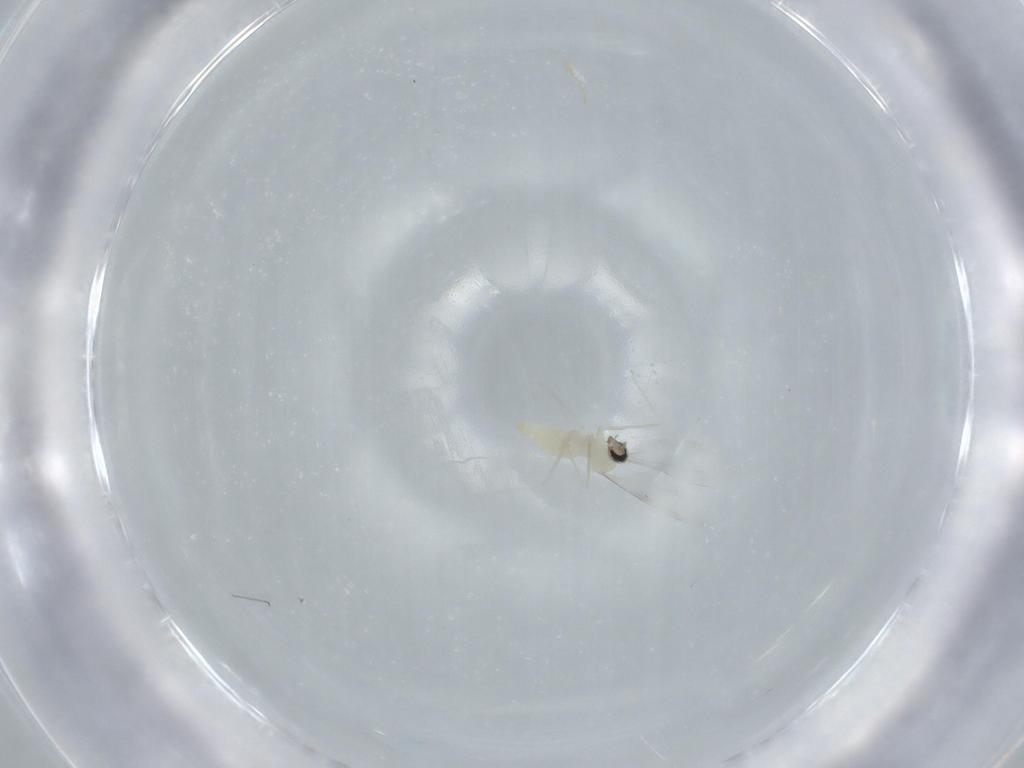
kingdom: Animalia
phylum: Arthropoda
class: Insecta
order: Diptera
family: Cecidomyiidae
